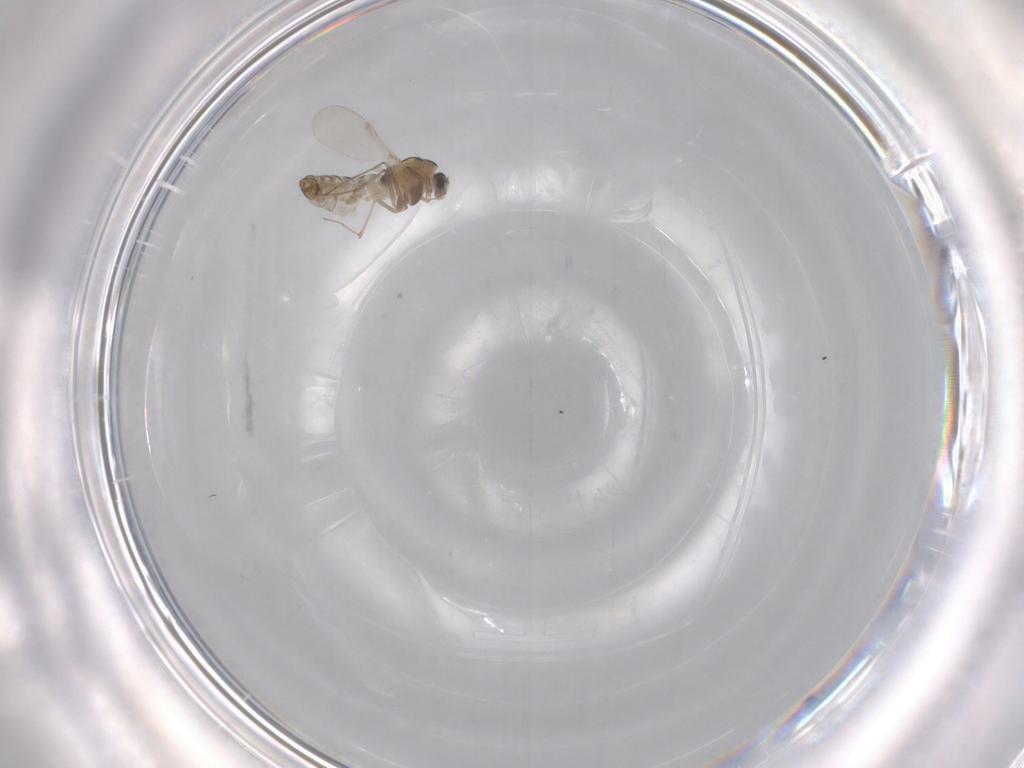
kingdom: Animalia
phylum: Arthropoda
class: Insecta
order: Diptera
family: Chironomidae
